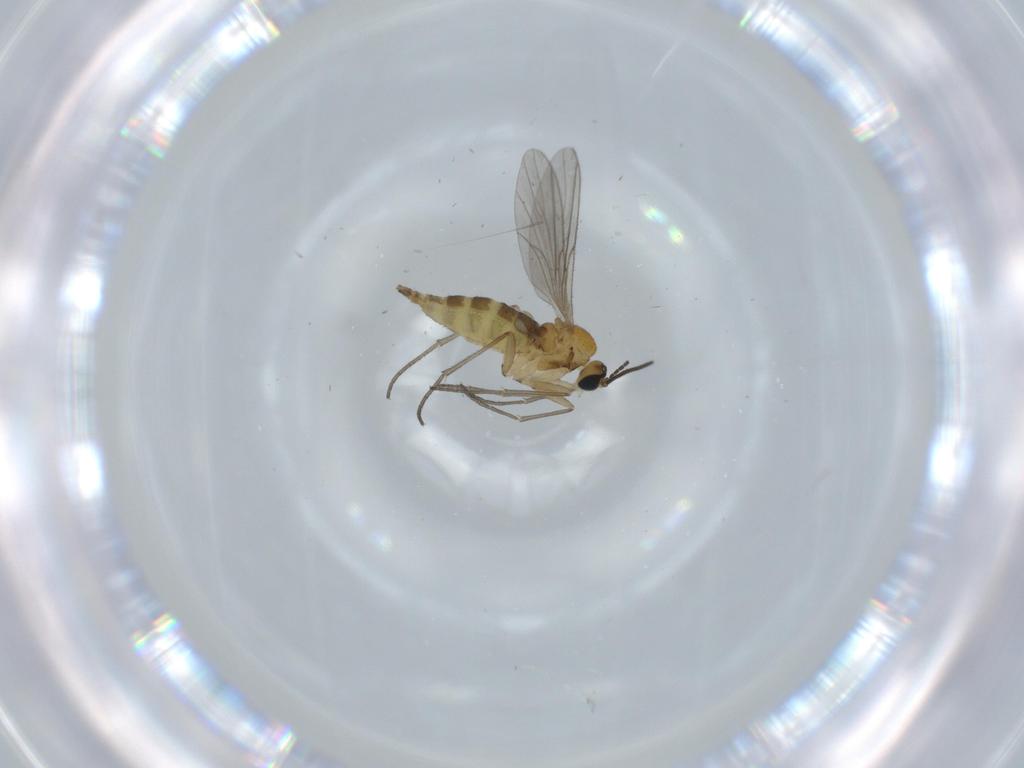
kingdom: Animalia
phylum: Arthropoda
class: Insecta
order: Diptera
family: Sciaridae
